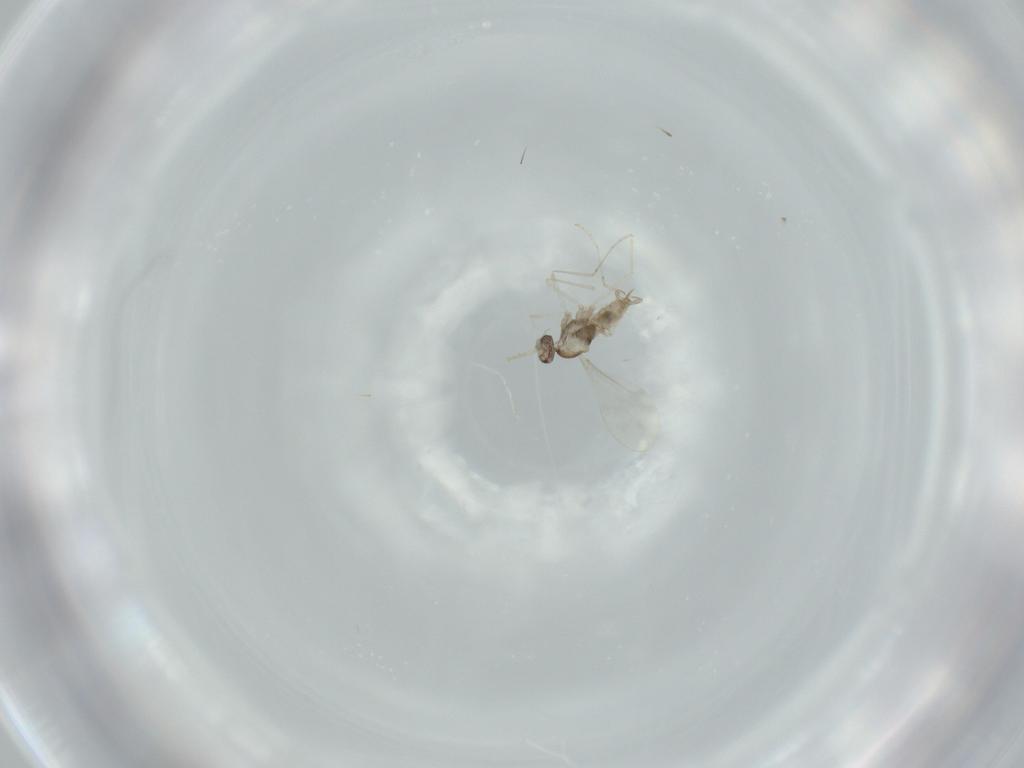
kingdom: Animalia
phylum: Arthropoda
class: Insecta
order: Diptera
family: Cecidomyiidae
